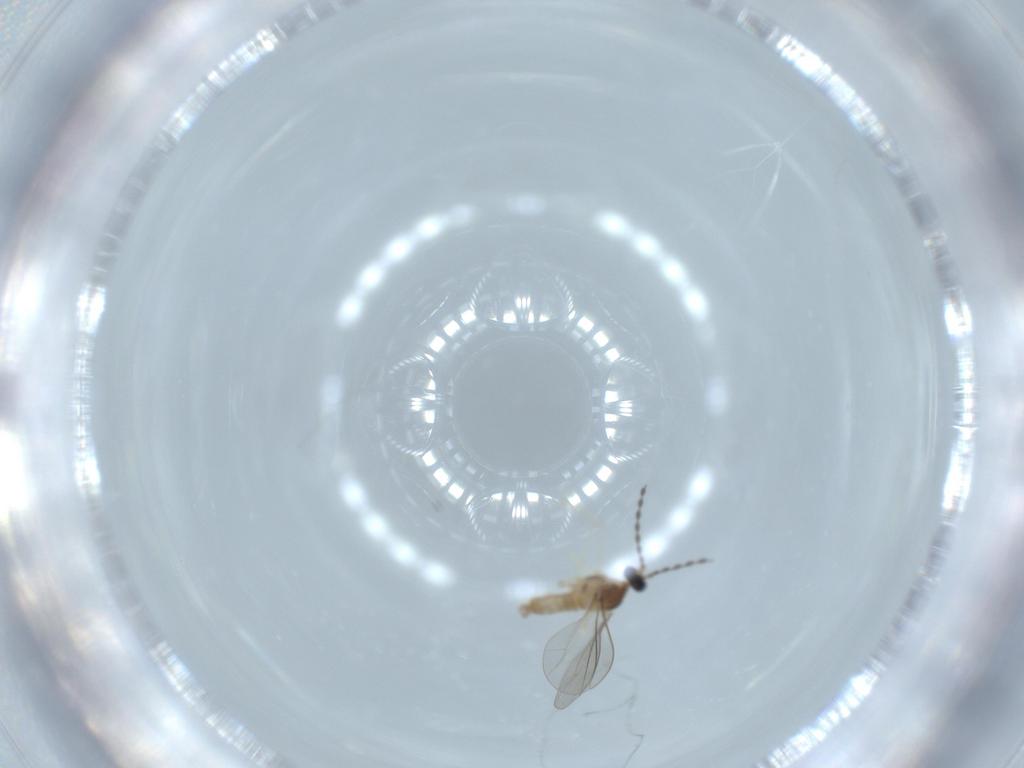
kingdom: Animalia
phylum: Arthropoda
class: Insecta
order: Diptera
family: Cecidomyiidae
